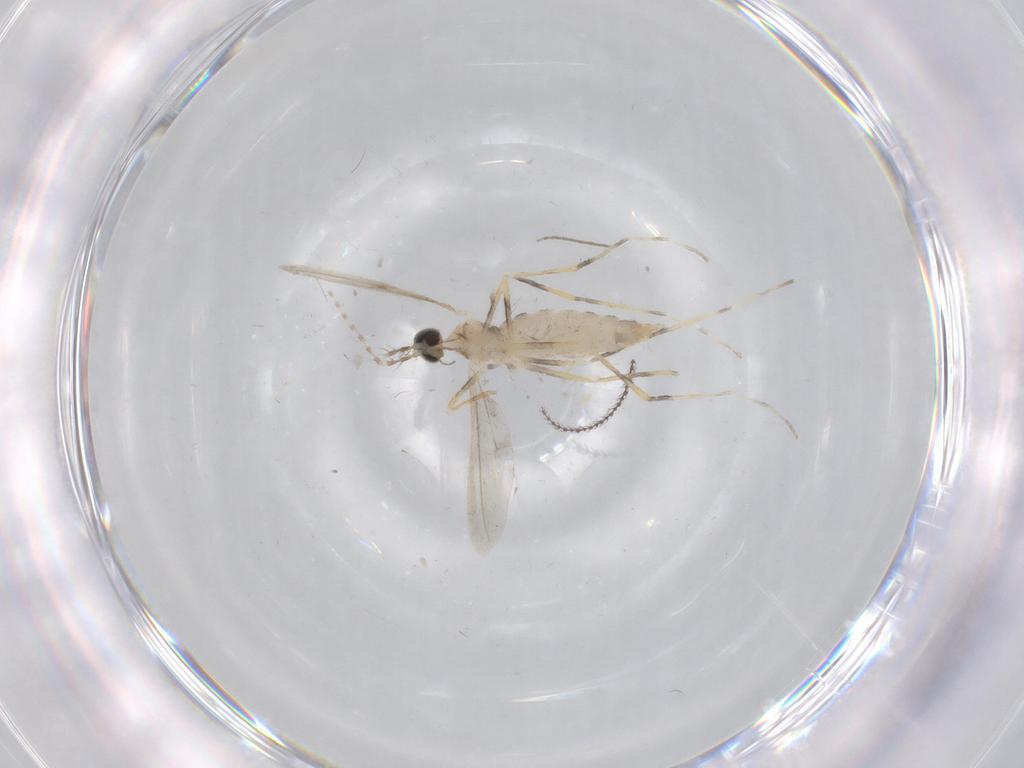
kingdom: Animalia
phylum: Arthropoda
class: Insecta
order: Diptera
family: Cecidomyiidae
